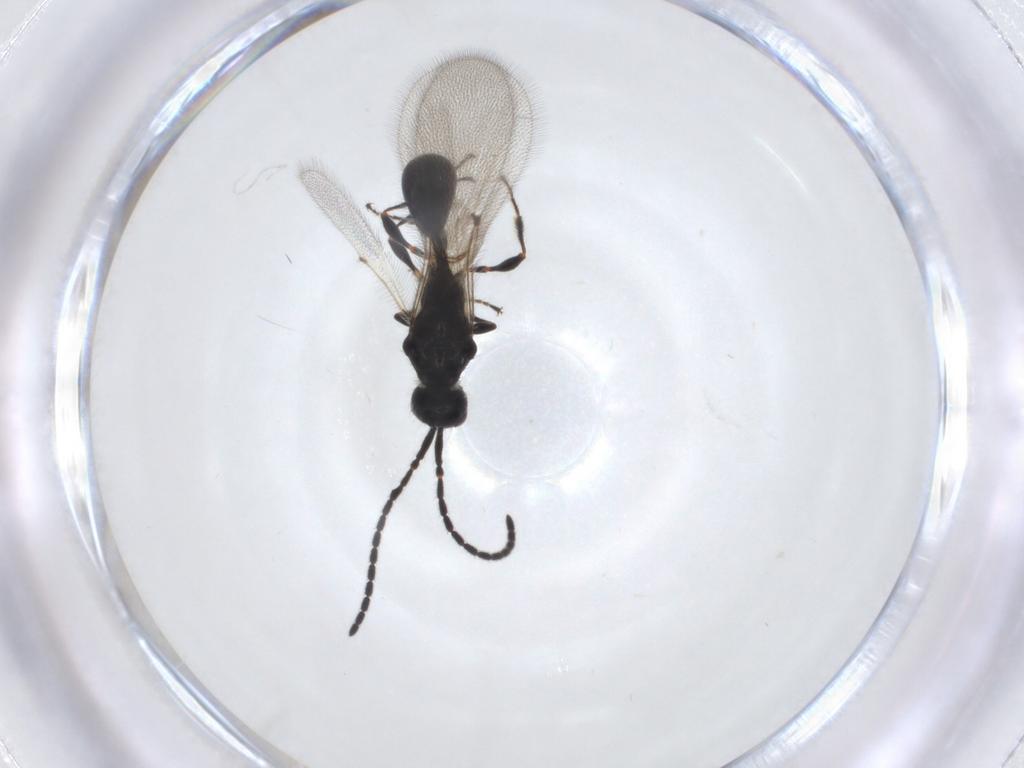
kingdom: Animalia
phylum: Arthropoda
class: Insecta
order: Hymenoptera
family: Diapriidae
